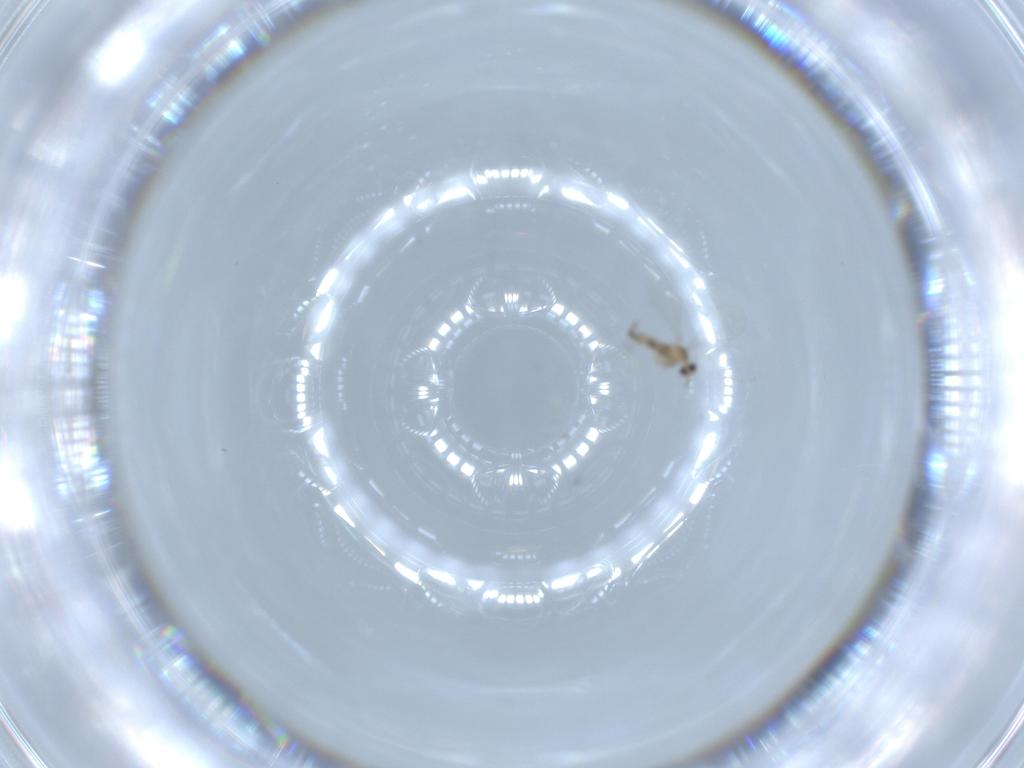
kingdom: Animalia
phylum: Arthropoda
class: Insecta
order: Diptera
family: Cecidomyiidae
